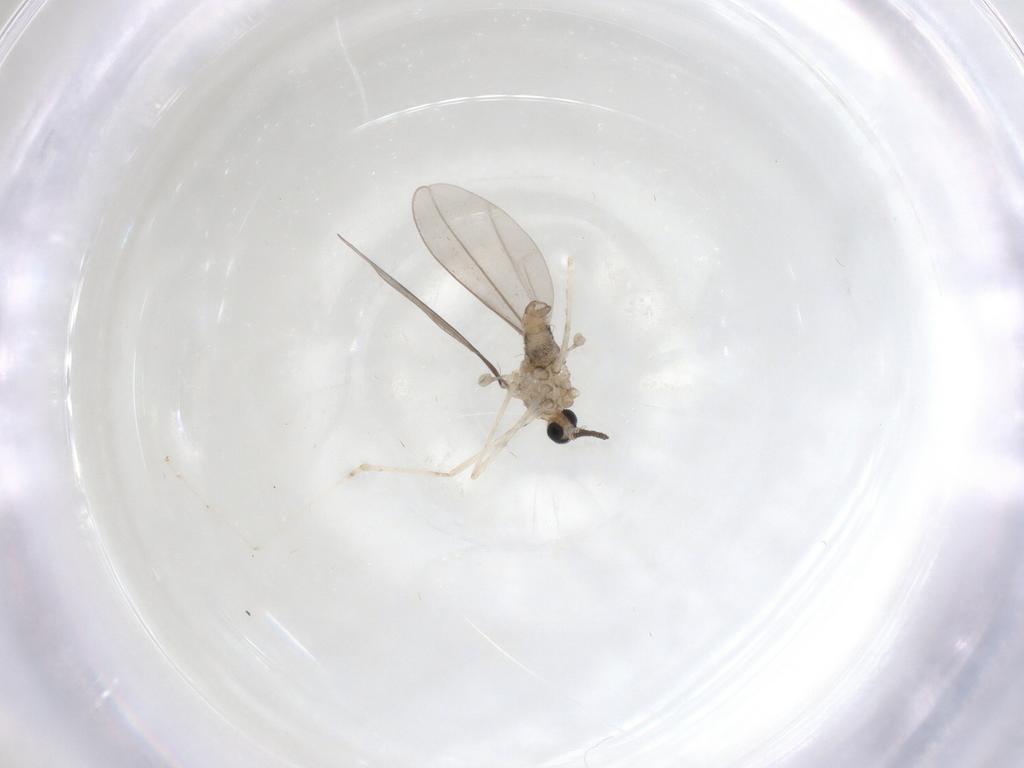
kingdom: Animalia
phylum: Arthropoda
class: Insecta
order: Diptera
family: Cecidomyiidae
